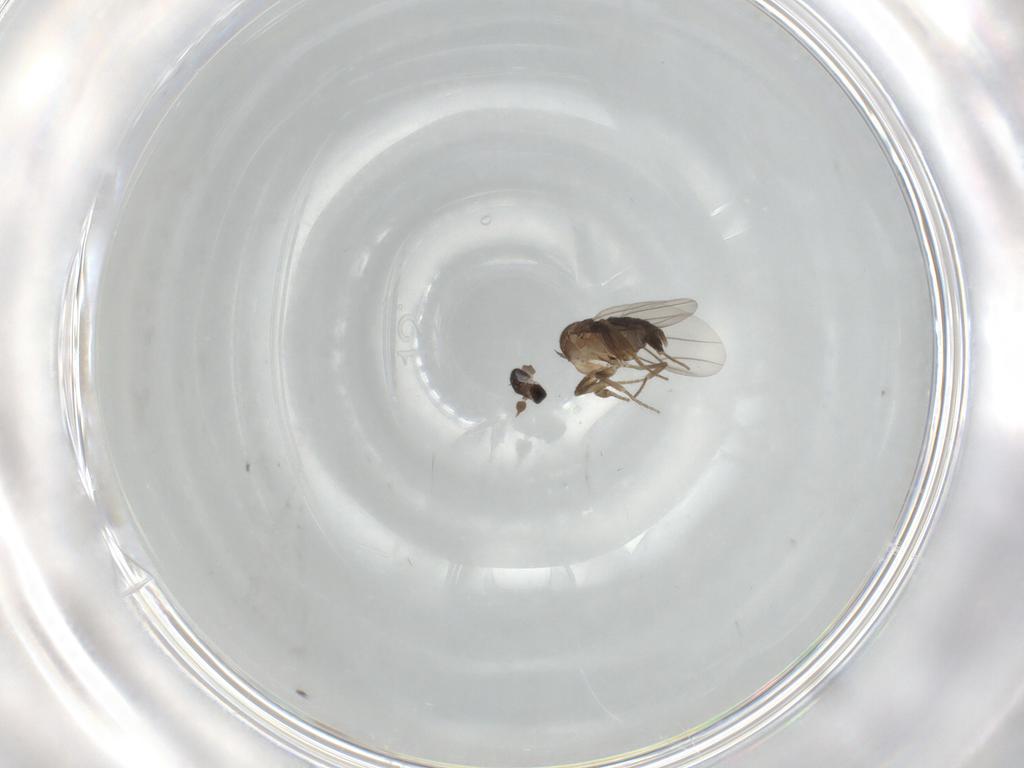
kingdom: Animalia
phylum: Arthropoda
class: Insecta
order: Diptera
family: Phoridae
